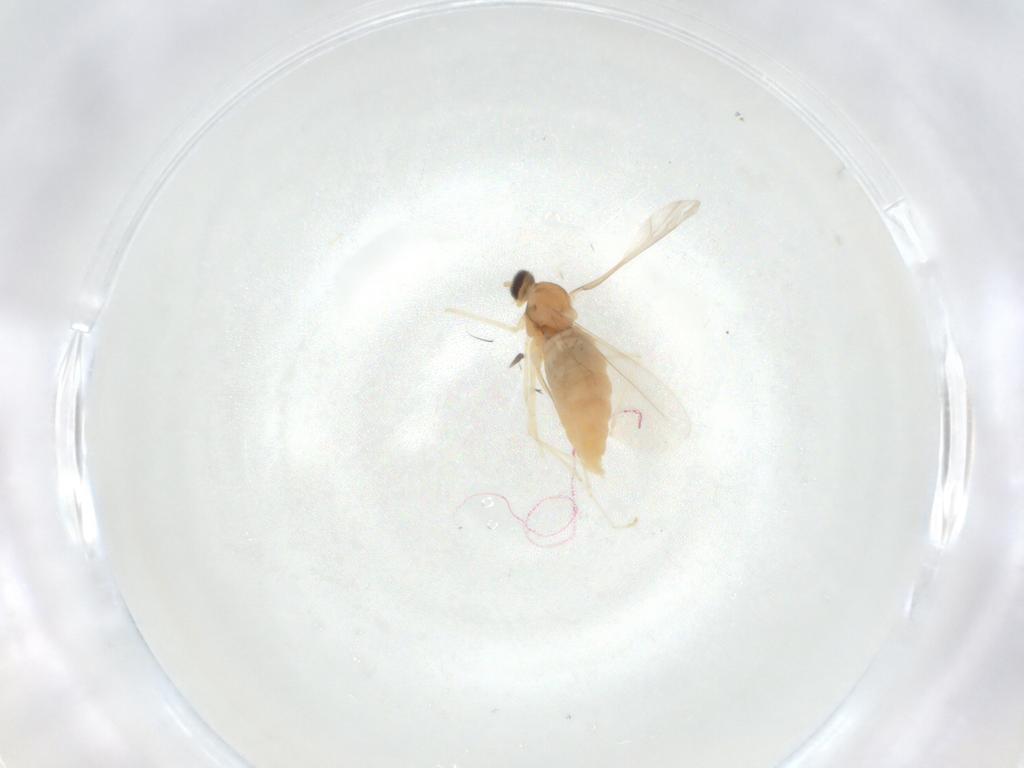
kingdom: Animalia
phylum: Arthropoda
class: Insecta
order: Diptera
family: Cecidomyiidae
